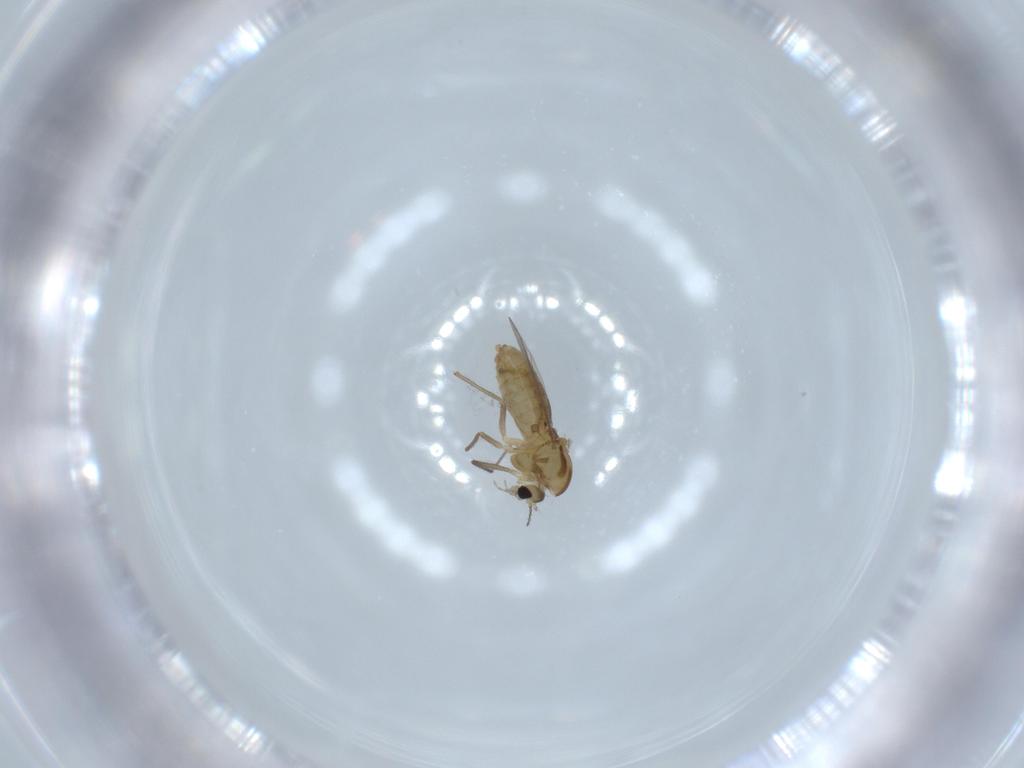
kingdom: Animalia
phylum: Arthropoda
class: Insecta
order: Diptera
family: Chironomidae
